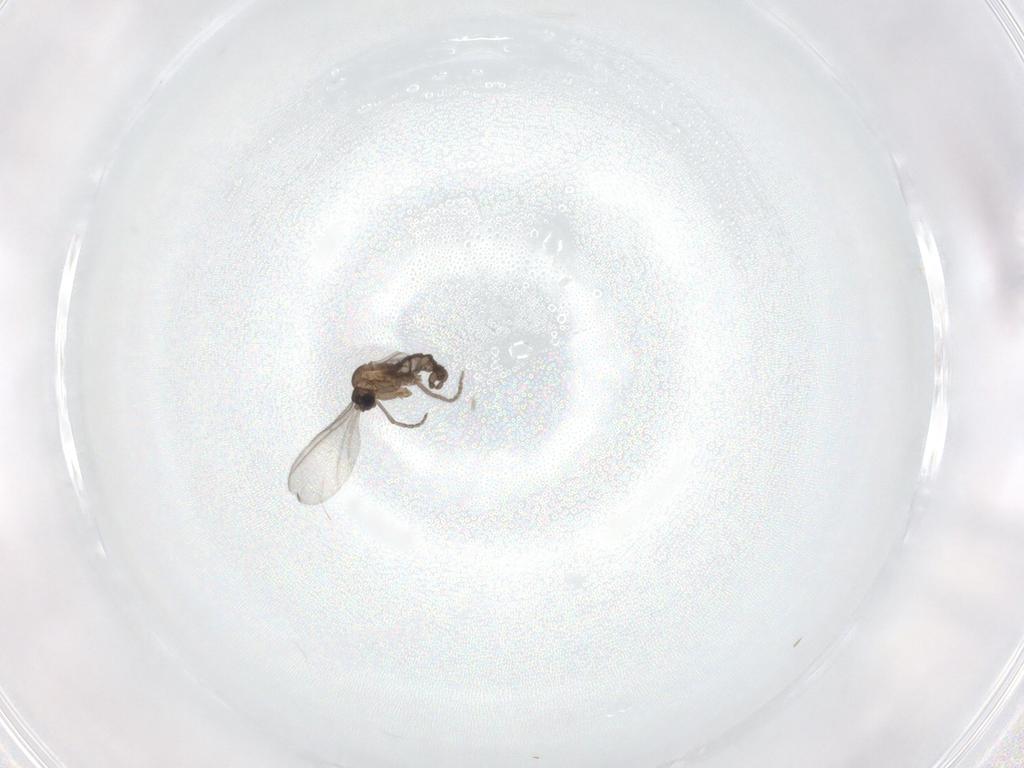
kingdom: Animalia
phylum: Arthropoda
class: Insecta
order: Diptera
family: Sciaridae
